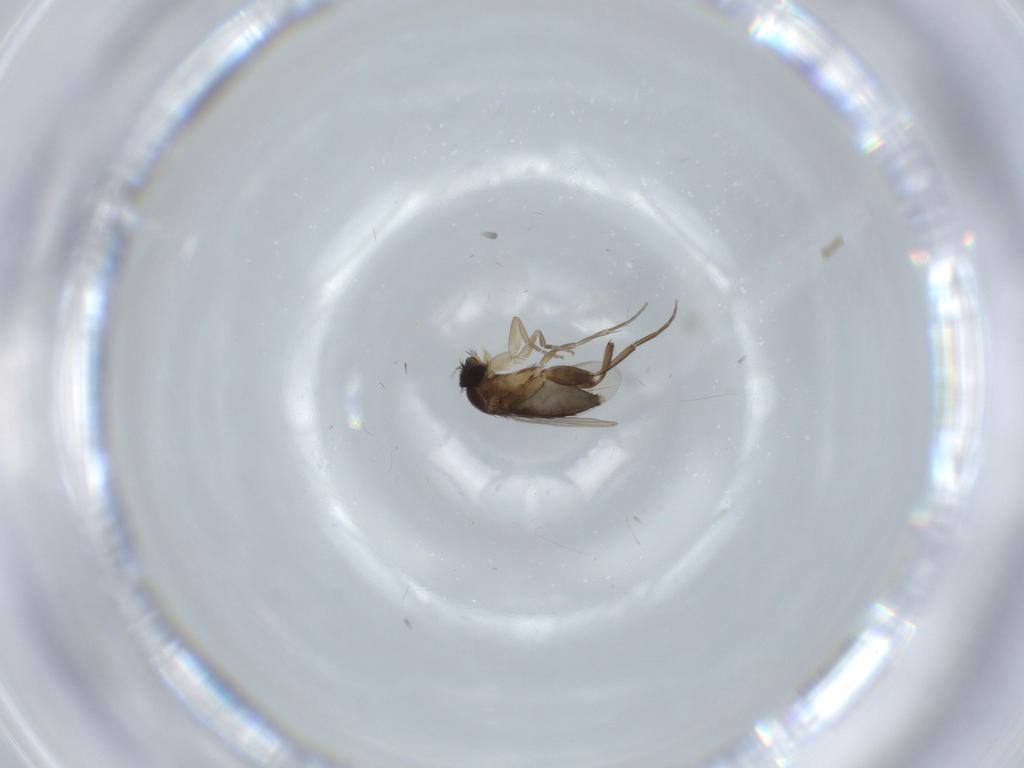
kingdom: Animalia
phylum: Arthropoda
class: Insecta
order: Diptera
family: Phoridae
